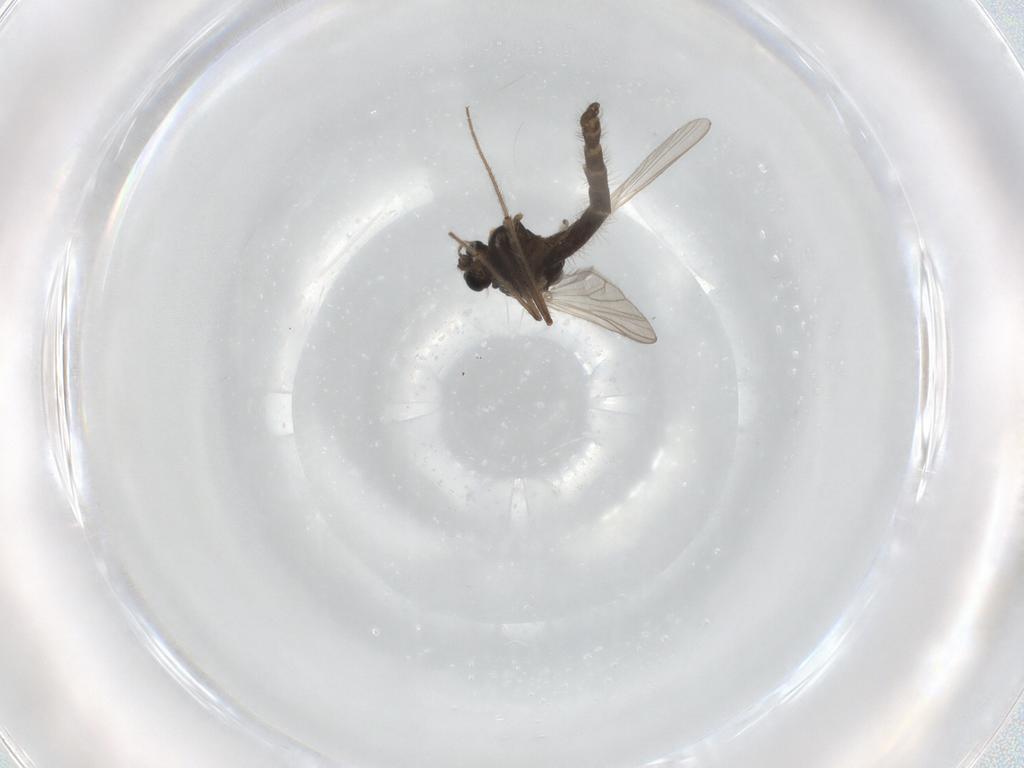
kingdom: Animalia
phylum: Arthropoda
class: Insecta
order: Diptera
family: Chironomidae
